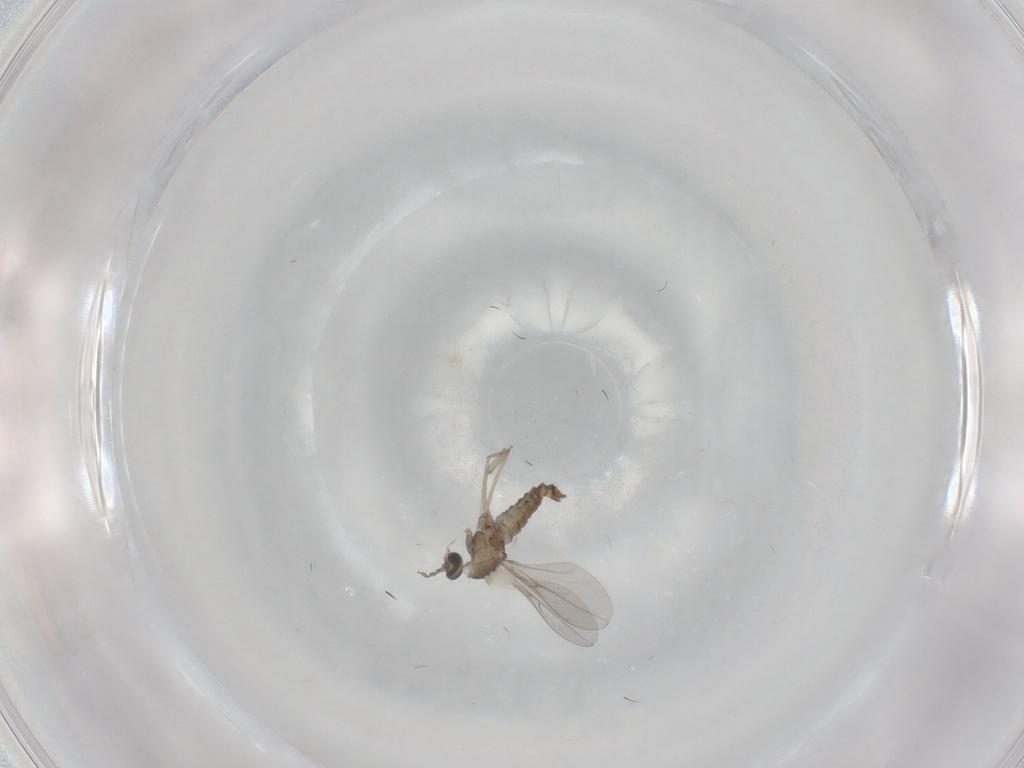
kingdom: Animalia
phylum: Arthropoda
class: Insecta
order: Diptera
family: Cecidomyiidae
